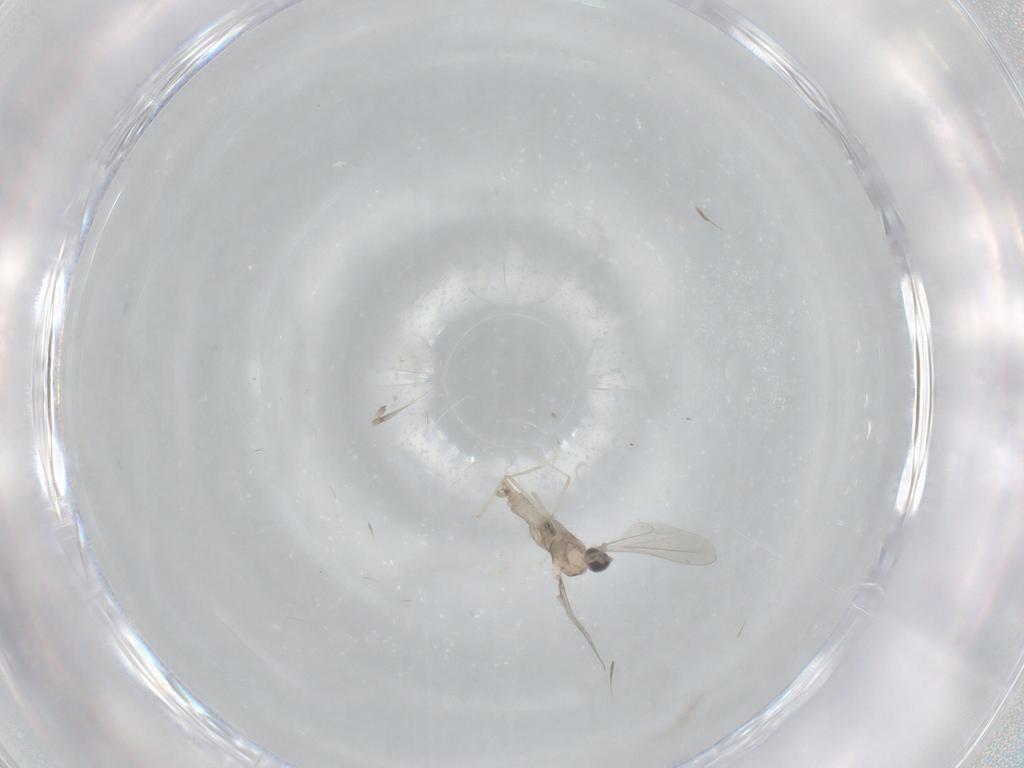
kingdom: Animalia
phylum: Arthropoda
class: Insecta
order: Diptera
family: Cecidomyiidae
